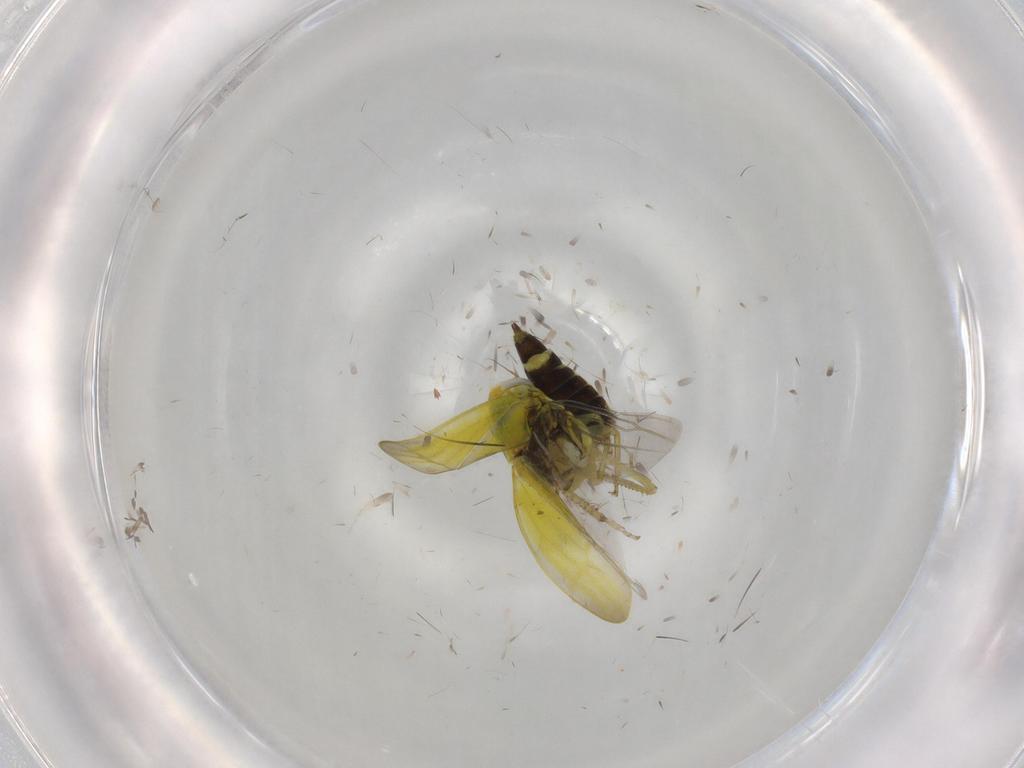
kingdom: Animalia
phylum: Arthropoda
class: Insecta
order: Hemiptera
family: Cicadellidae
